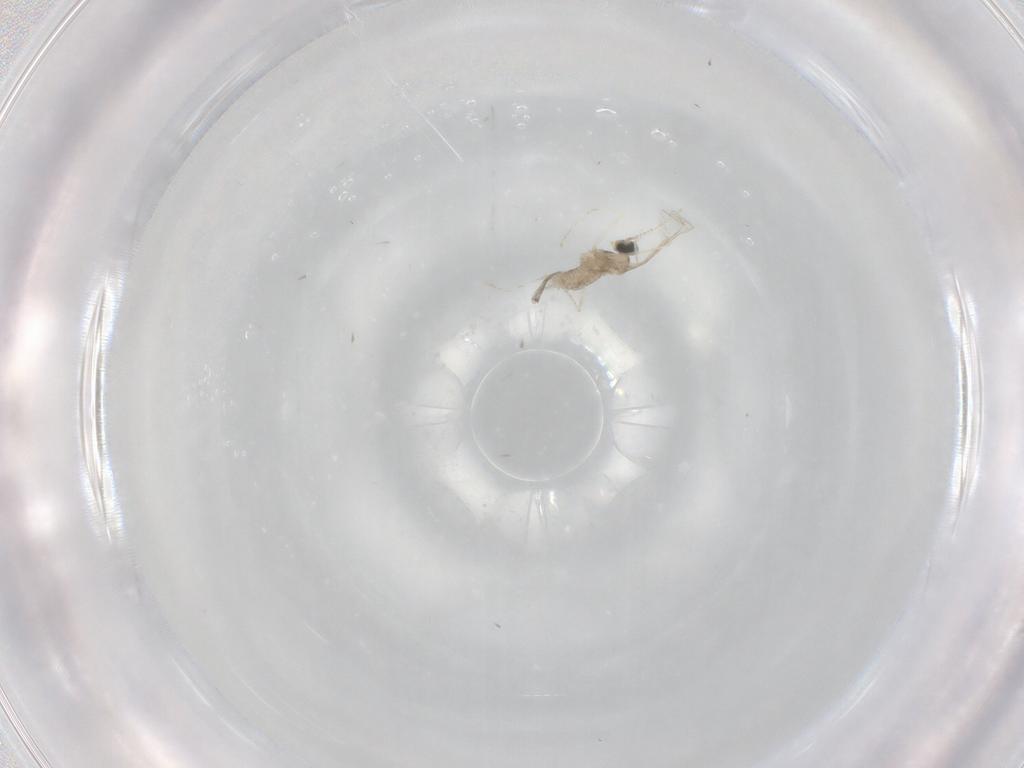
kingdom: Animalia
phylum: Arthropoda
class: Insecta
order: Diptera
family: Cecidomyiidae
